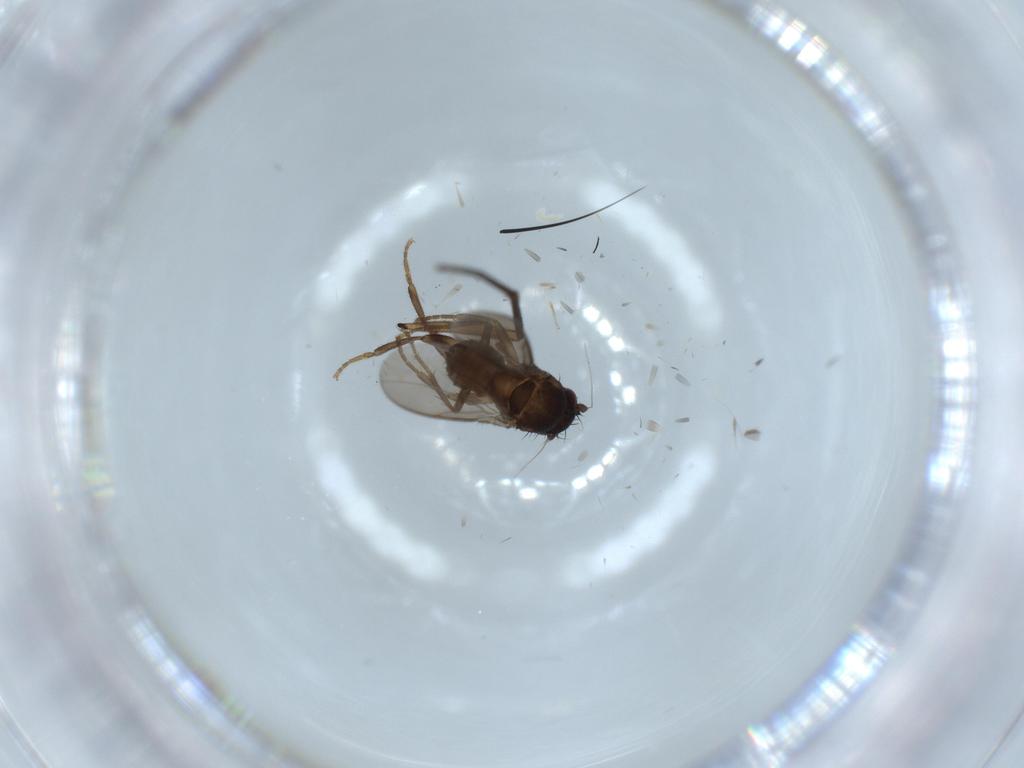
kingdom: Animalia
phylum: Arthropoda
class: Insecta
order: Diptera
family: Sphaeroceridae
